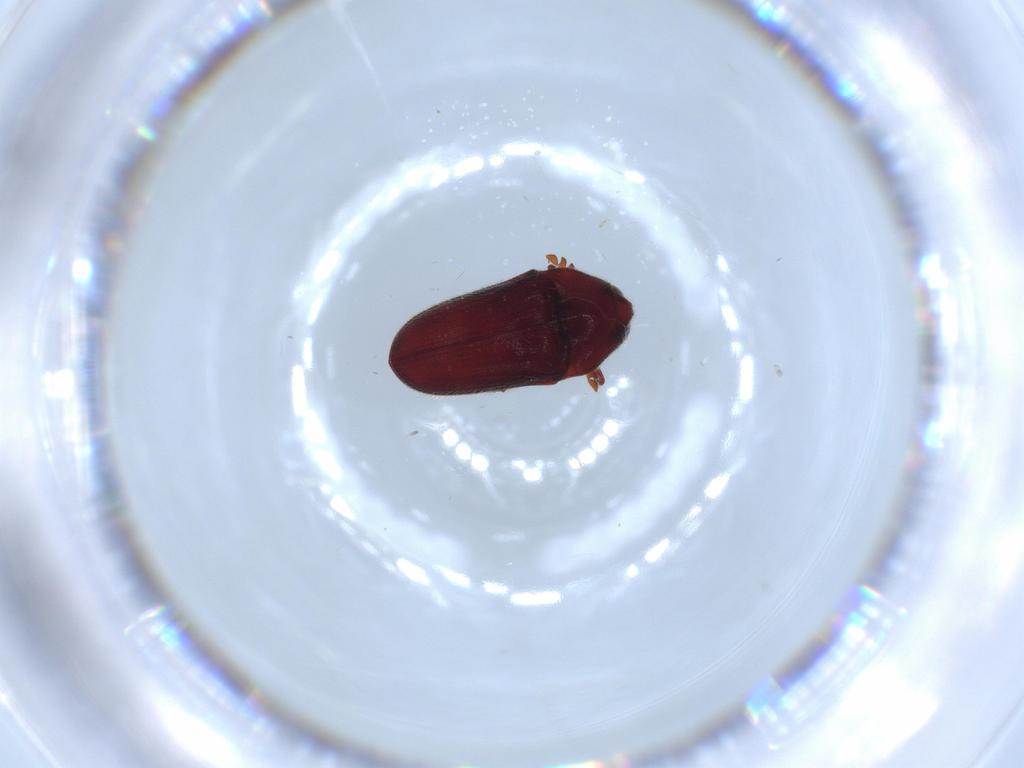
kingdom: Animalia
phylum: Arthropoda
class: Insecta
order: Coleoptera
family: Throscidae
